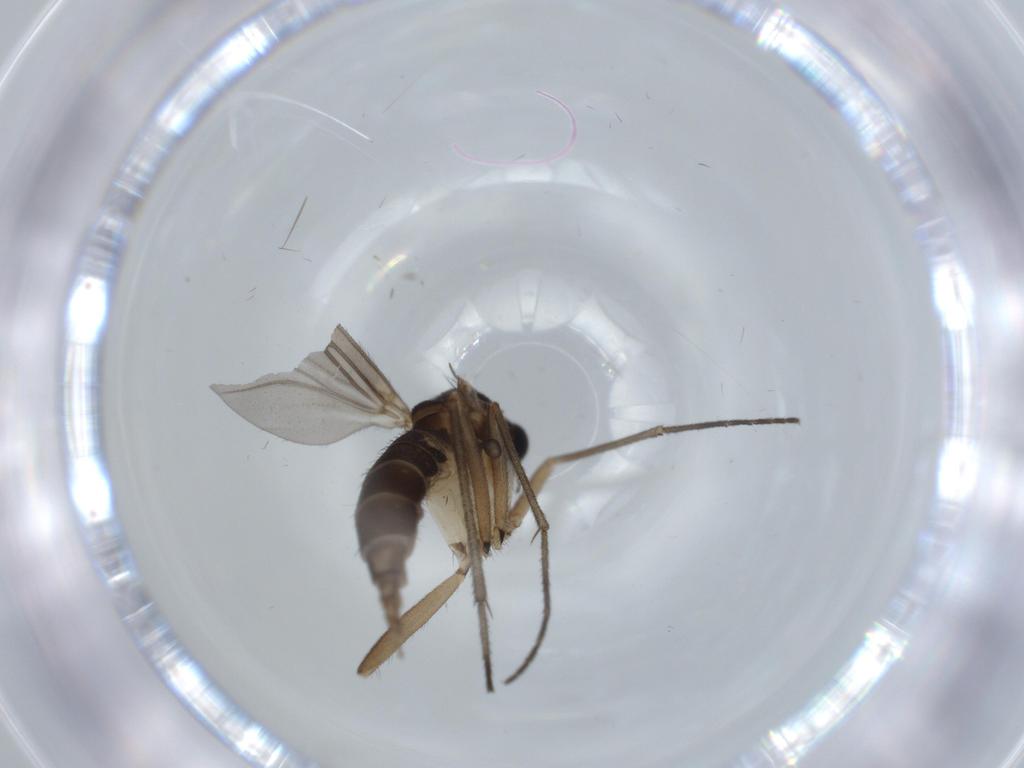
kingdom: Animalia
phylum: Arthropoda
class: Insecta
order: Diptera
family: Sciaridae
